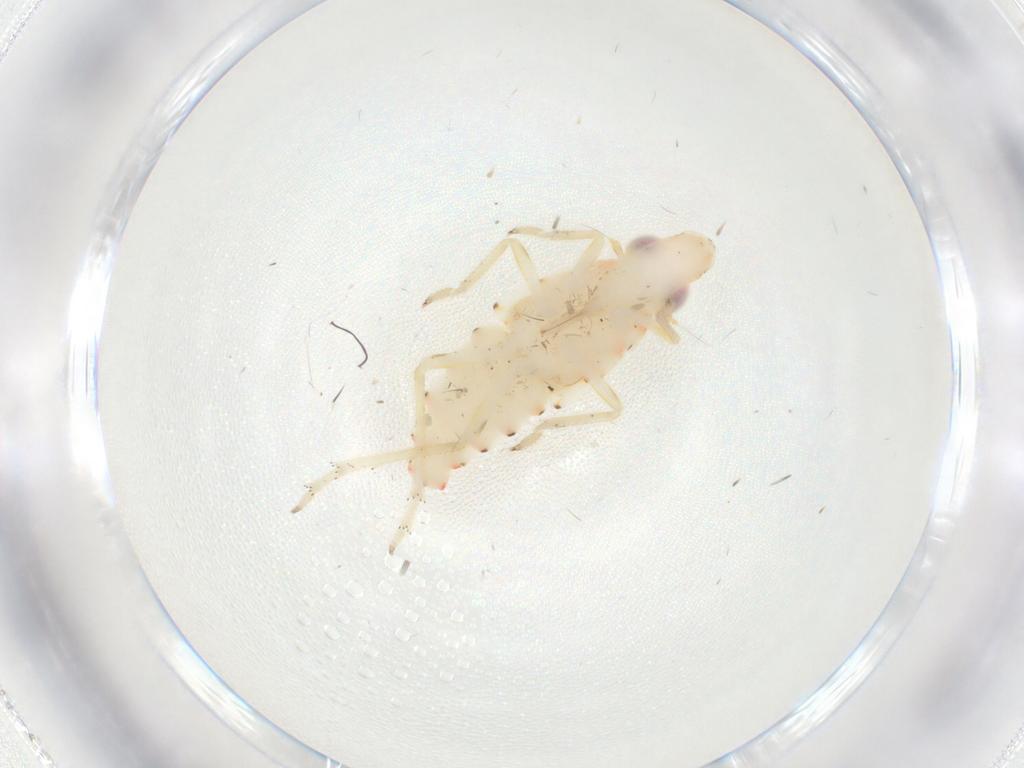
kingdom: Animalia
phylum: Arthropoda
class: Insecta
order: Hemiptera
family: Tropiduchidae
